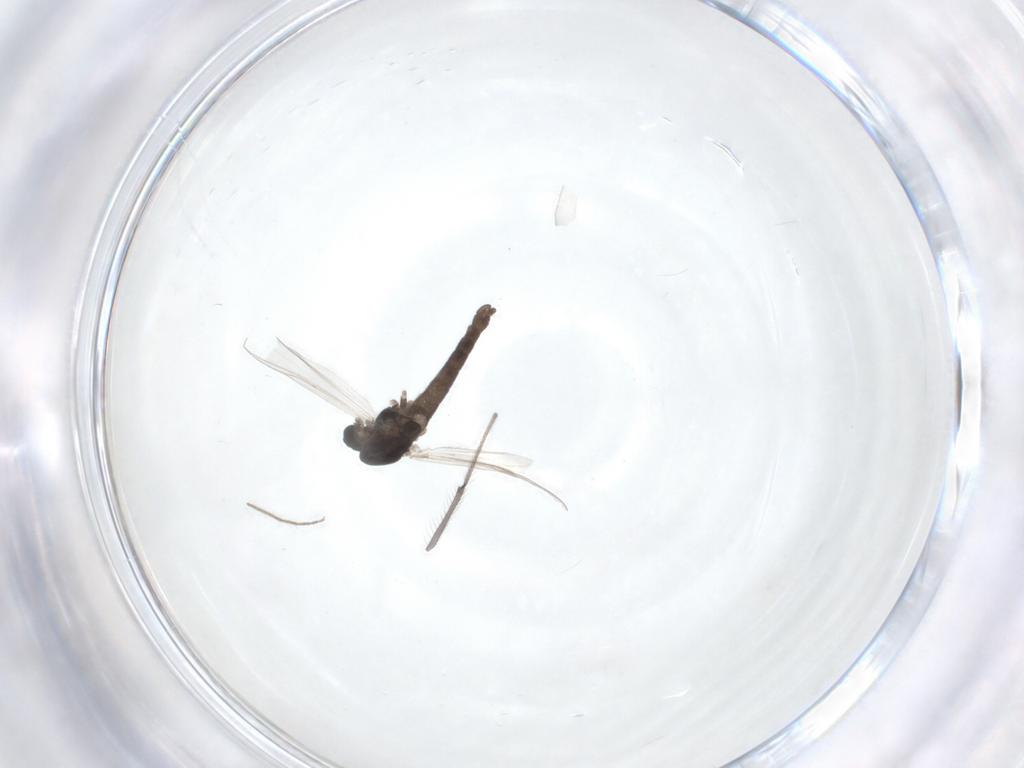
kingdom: Animalia
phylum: Arthropoda
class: Insecta
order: Diptera
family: Chironomidae
